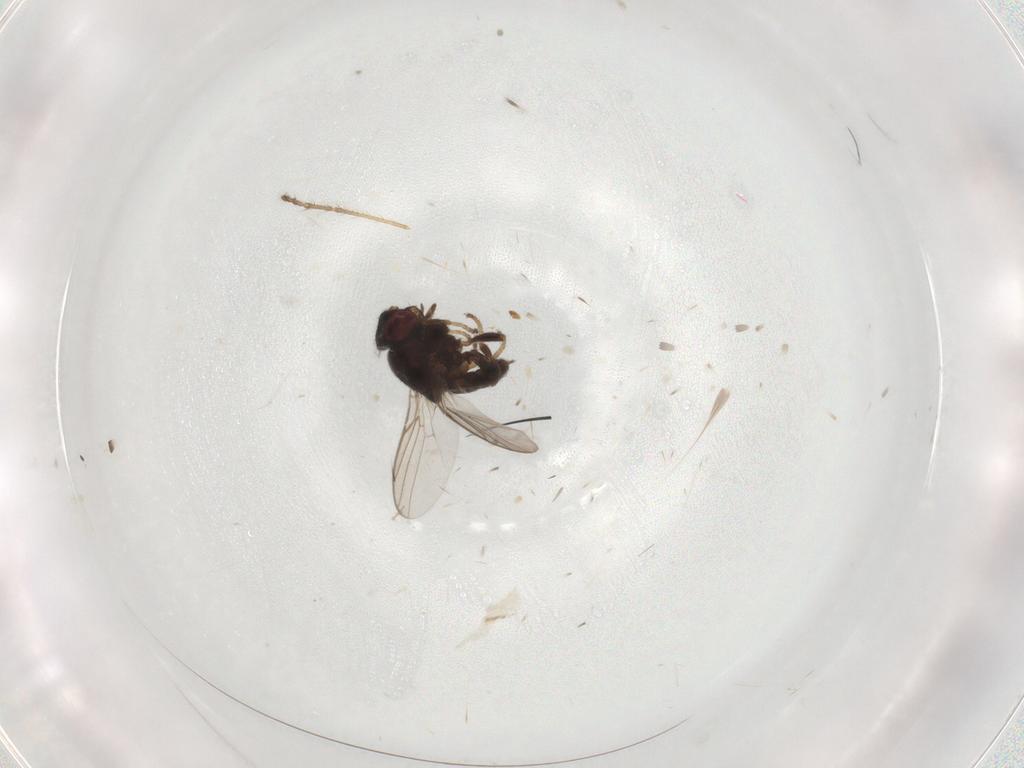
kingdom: Animalia
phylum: Arthropoda
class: Insecta
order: Diptera
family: Chloropidae
